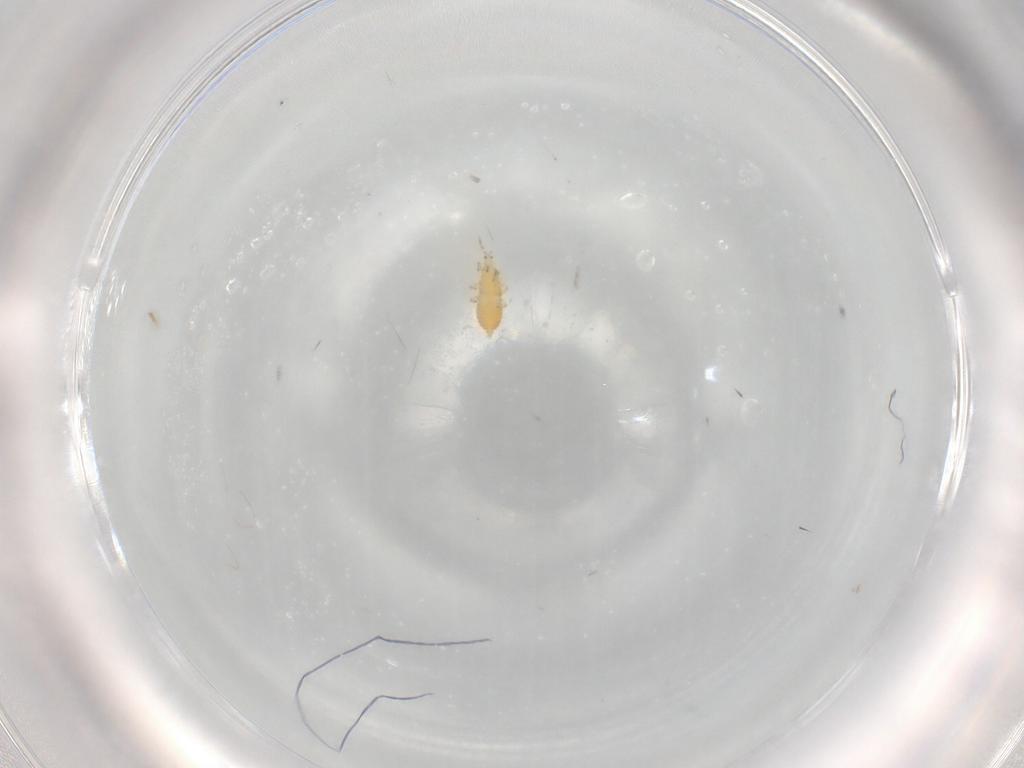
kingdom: Animalia
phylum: Arthropoda
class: Insecta
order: Thysanoptera
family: Thripidae
